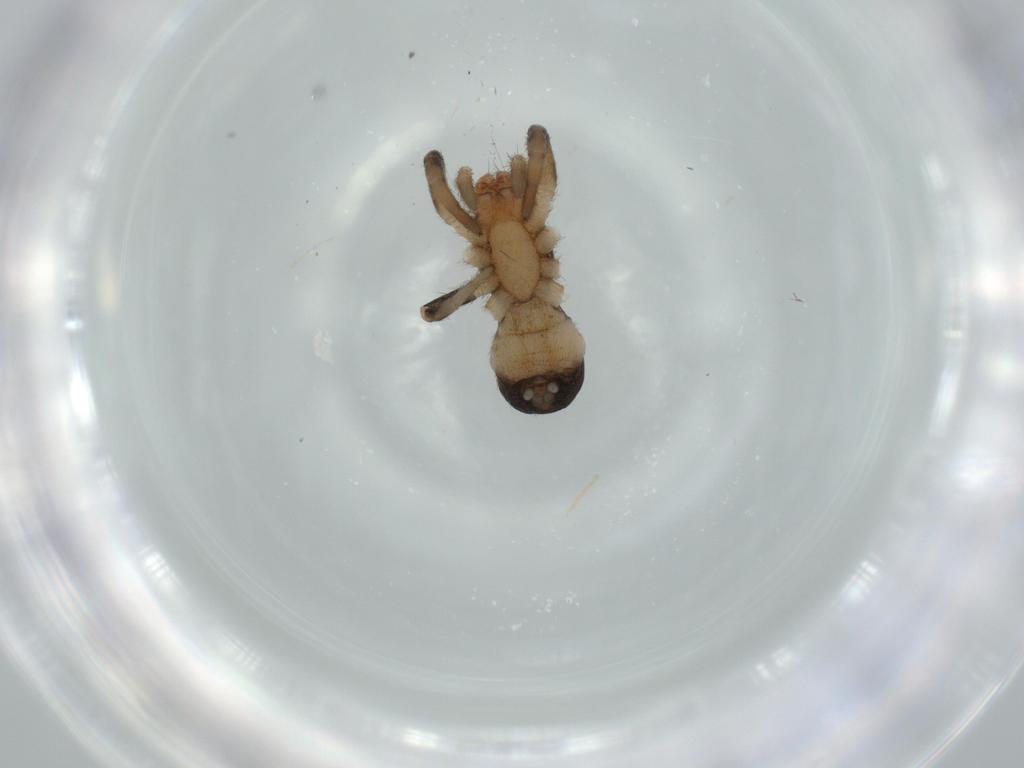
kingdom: Animalia
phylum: Arthropoda
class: Arachnida
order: Araneae
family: Gnaphosidae
